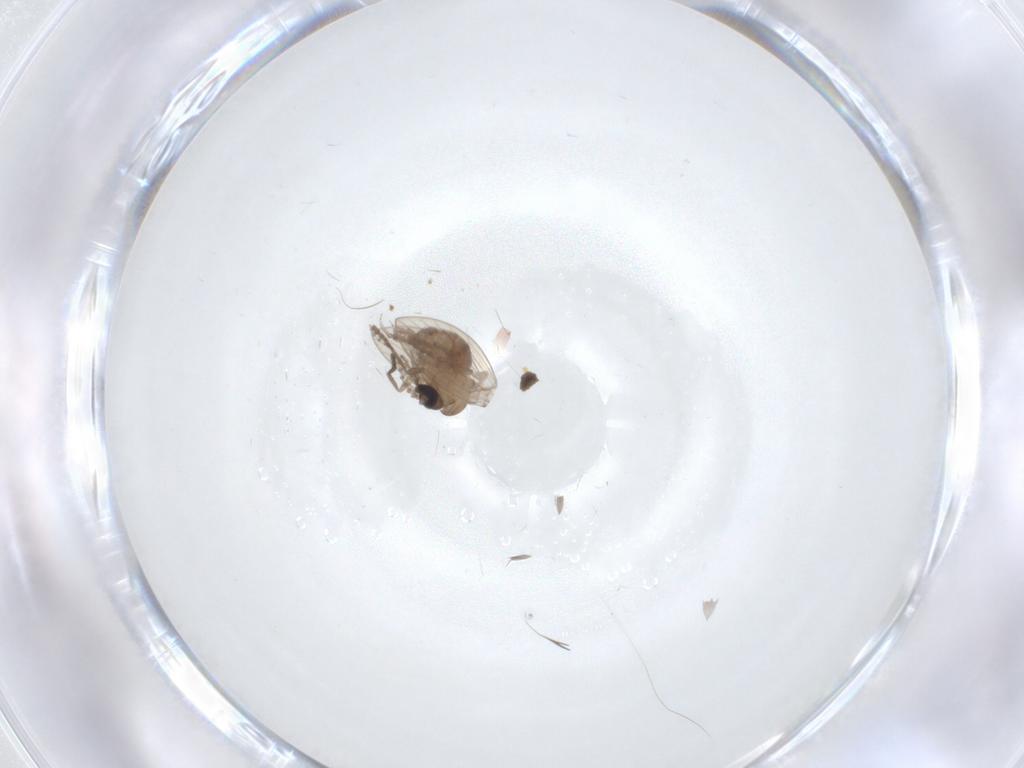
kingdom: Animalia
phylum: Arthropoda
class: Insecta
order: Diptera
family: Psychodidae
